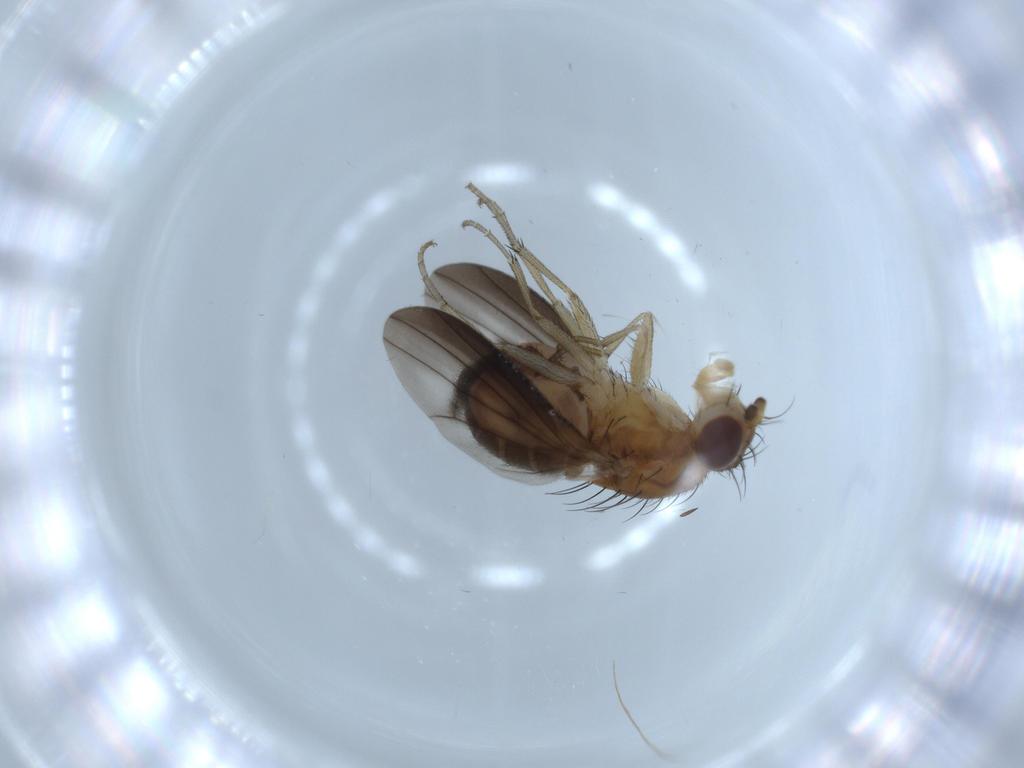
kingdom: Animalia
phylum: Arthropoda
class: Insecta
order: Diptera
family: Heleomyzidae
